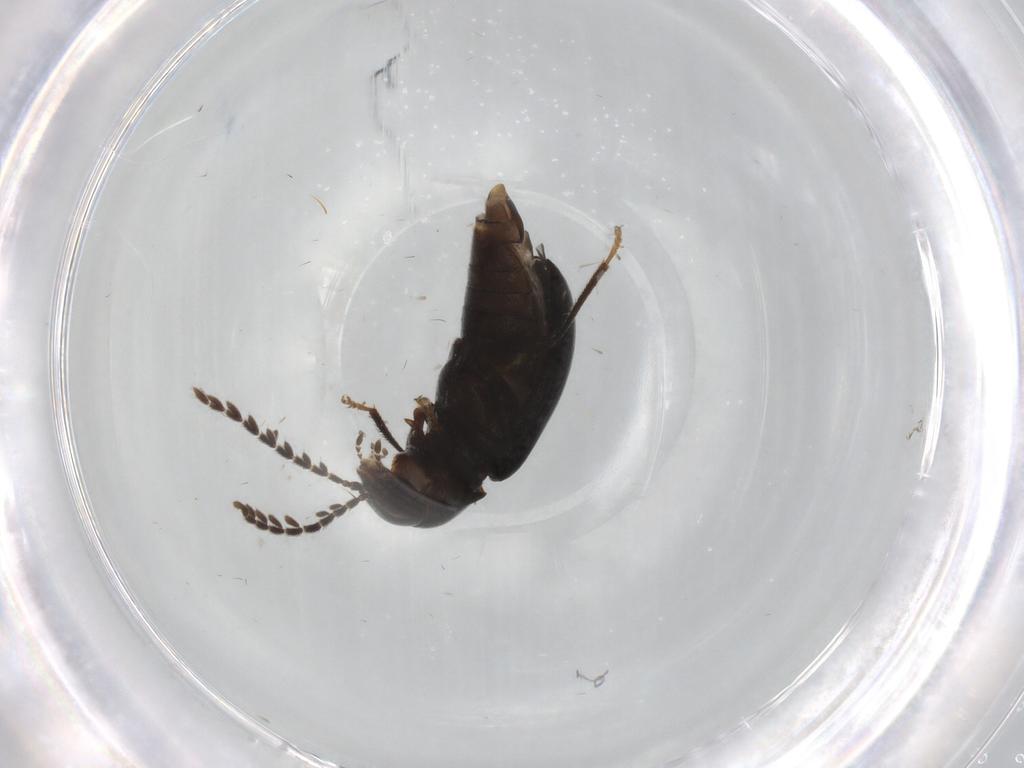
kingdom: Animalia
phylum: Arthropoda
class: Insecta
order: Coleoptera
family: Ptilodactylidae
